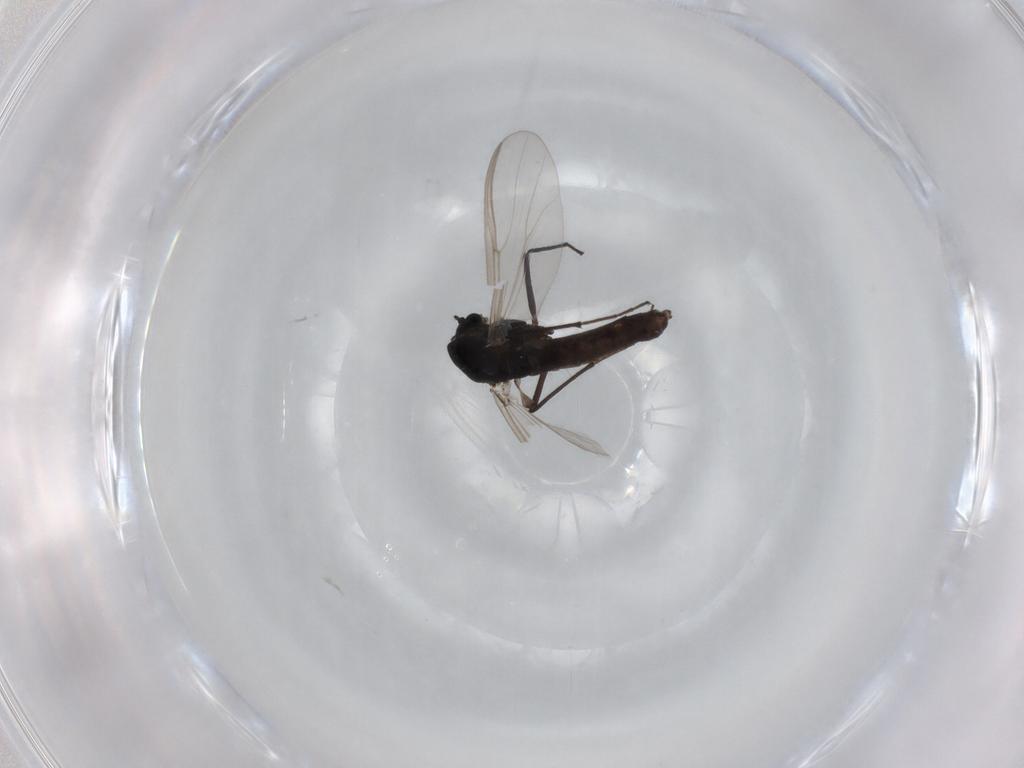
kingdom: Animalia
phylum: Arthropoda
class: Insecta
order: Diptera
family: Chironomidae
